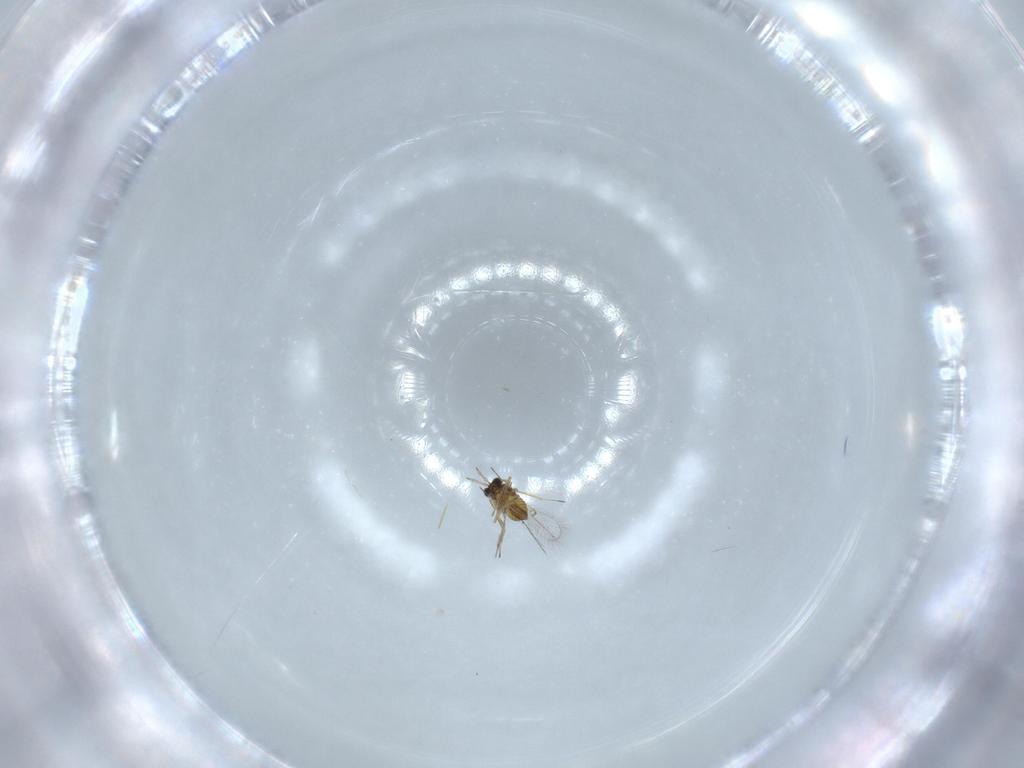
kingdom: Animalia
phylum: Arthropoda
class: Insecta
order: Hymenoptera
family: Trichogrammatidae
